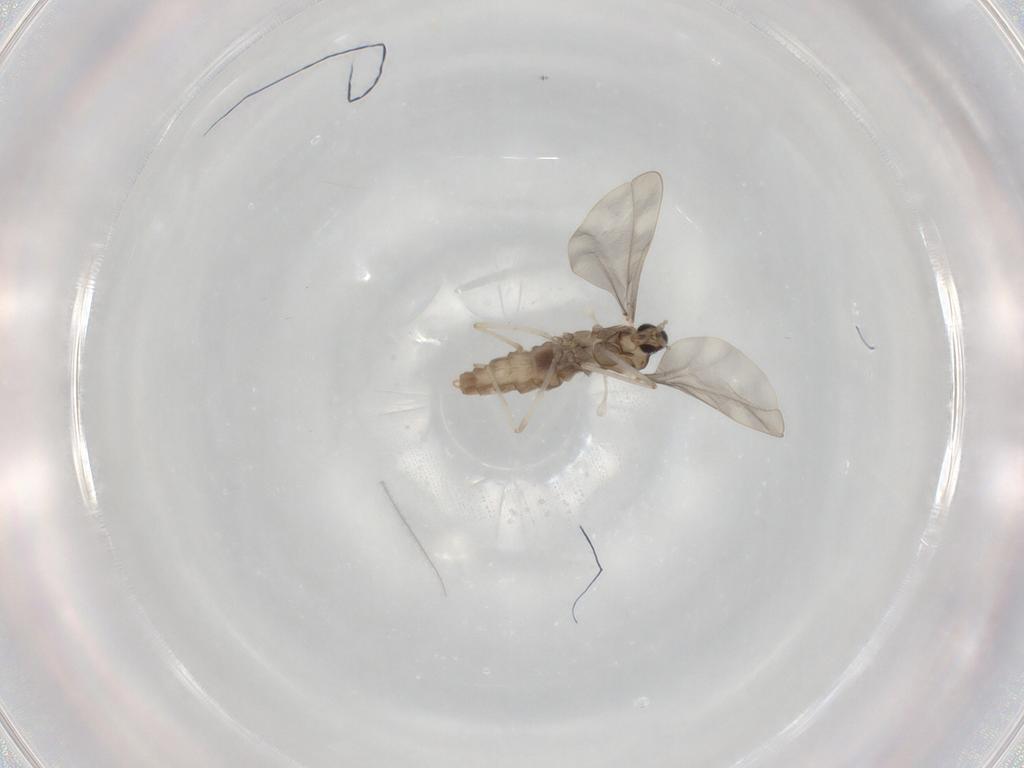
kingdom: Animalia
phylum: Arthropoda
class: Insecta
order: Diptera
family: Cecidomyiidae
